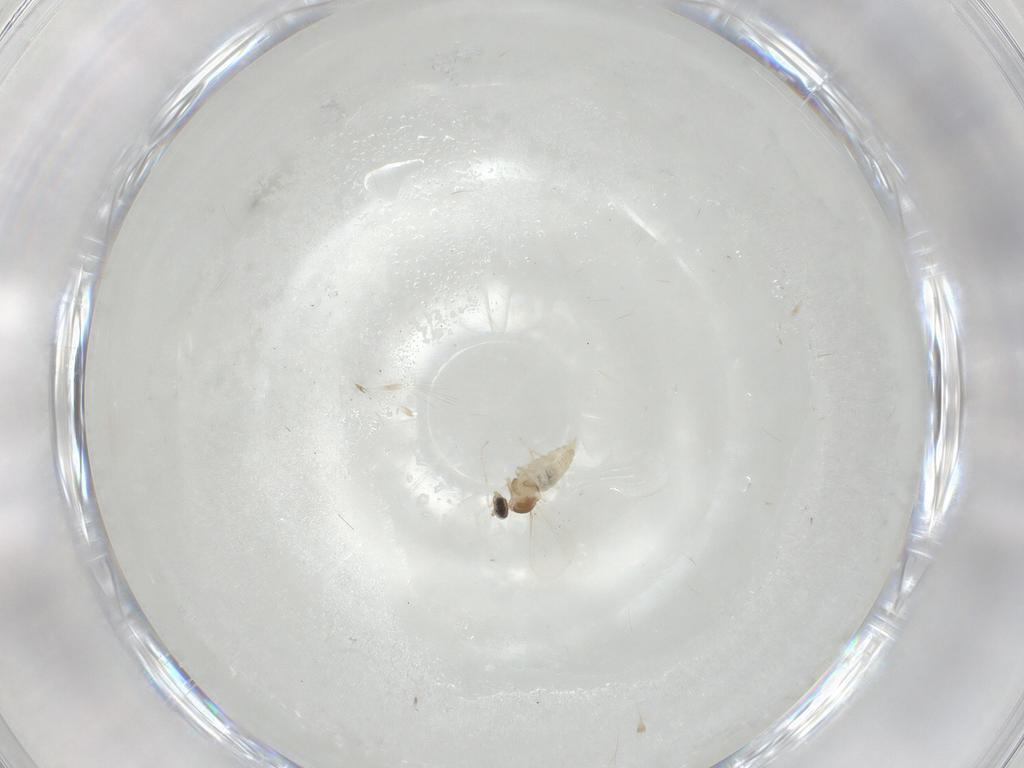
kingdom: Animalia
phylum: Arthropoda
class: Insecta
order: Diptera
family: Cecidomyiidae
